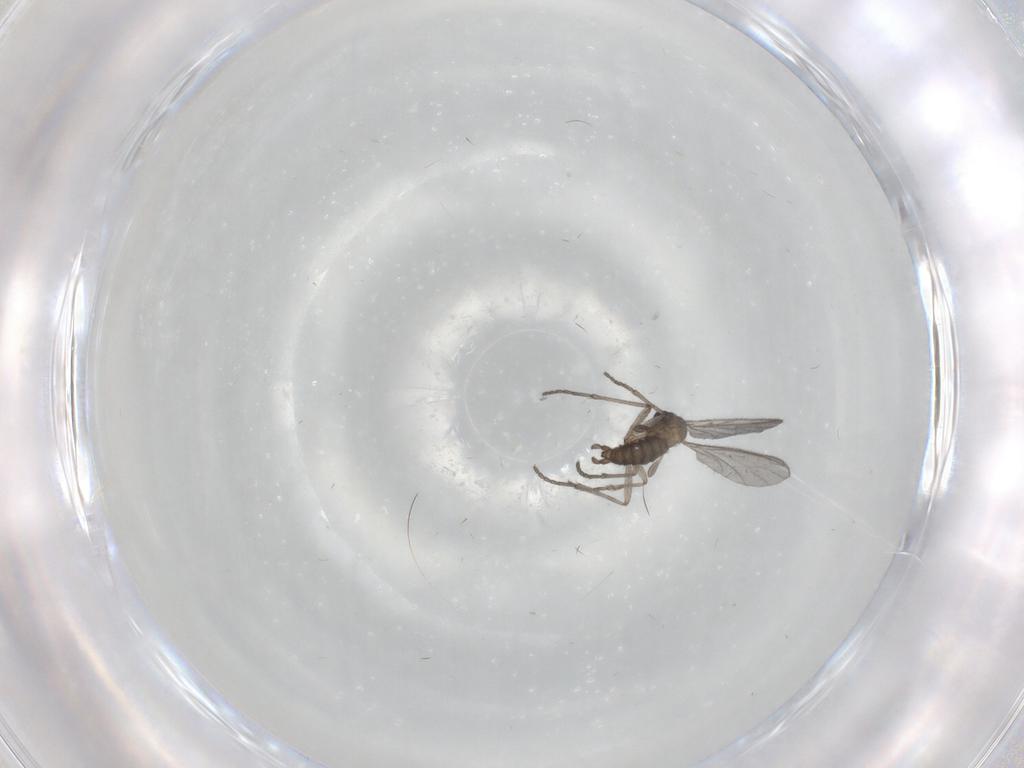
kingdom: Animalia
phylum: Arthropoda
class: Insecta
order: Diptera
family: Sciaridae
